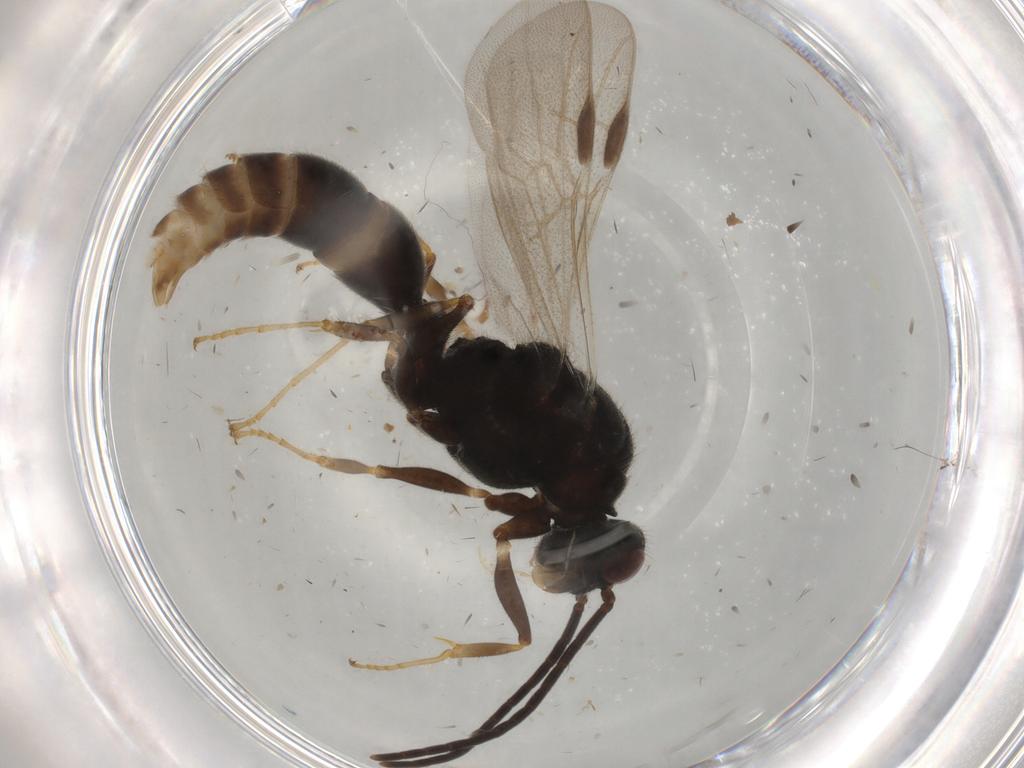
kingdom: Animalia
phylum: Arthropoda
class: Insecta
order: Hymenoptera
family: Formicidae
